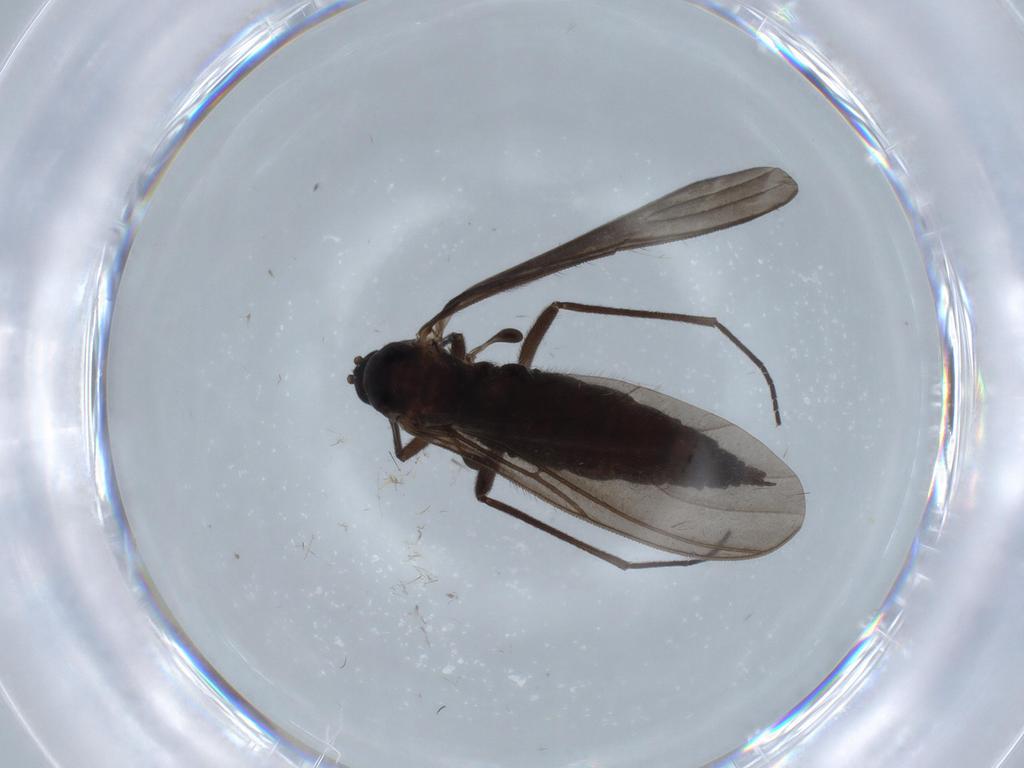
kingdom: Animalia
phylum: Arthropoda
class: Insecta
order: Diptera
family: Sciaridae
